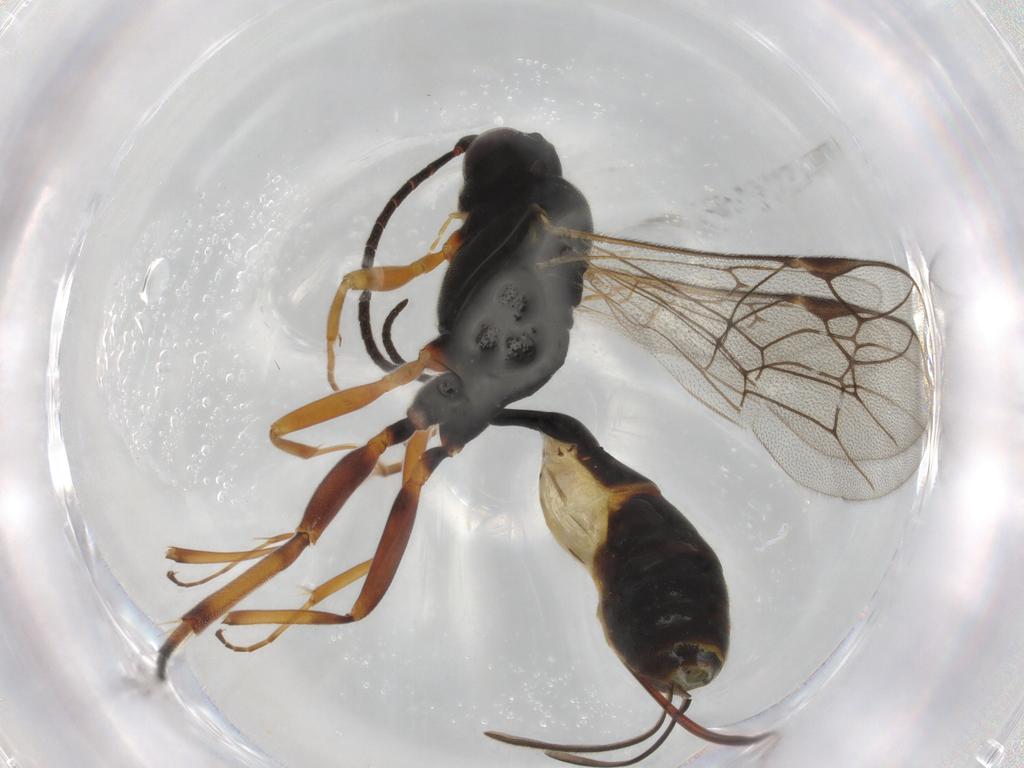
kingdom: Animalia
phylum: Arthropoda
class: Insecta
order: Hymenoptera
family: Ichneumonidae
